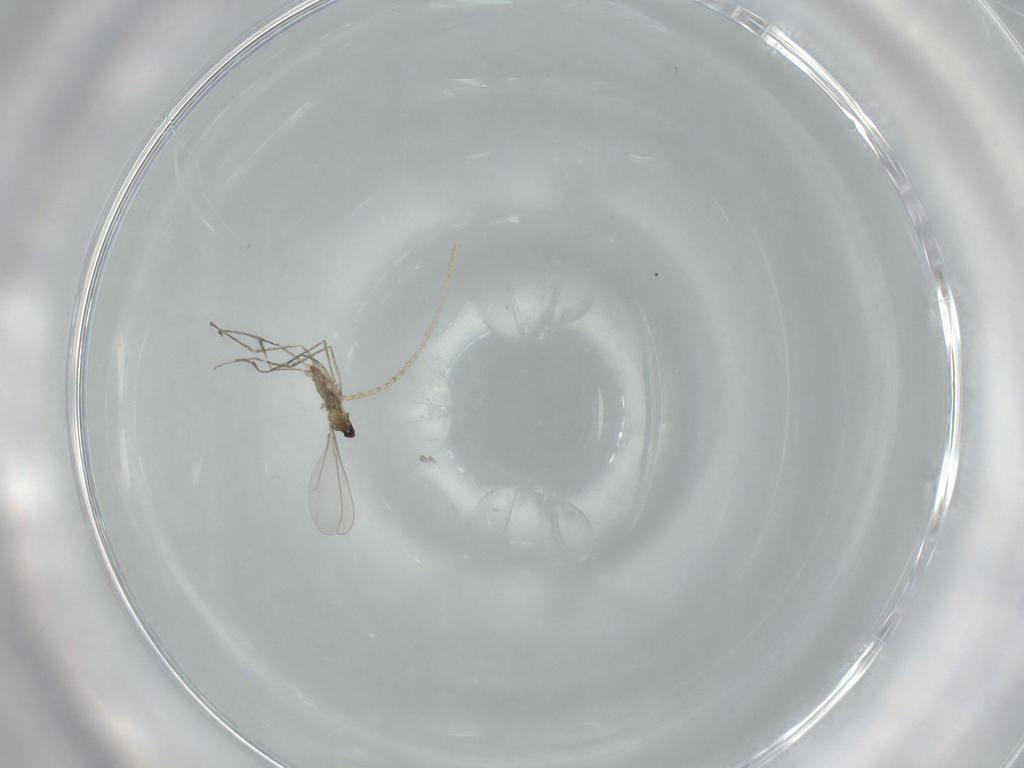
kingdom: Animalia
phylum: Arthropoda
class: Insecta
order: Diptera
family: Cecidomyiidae
